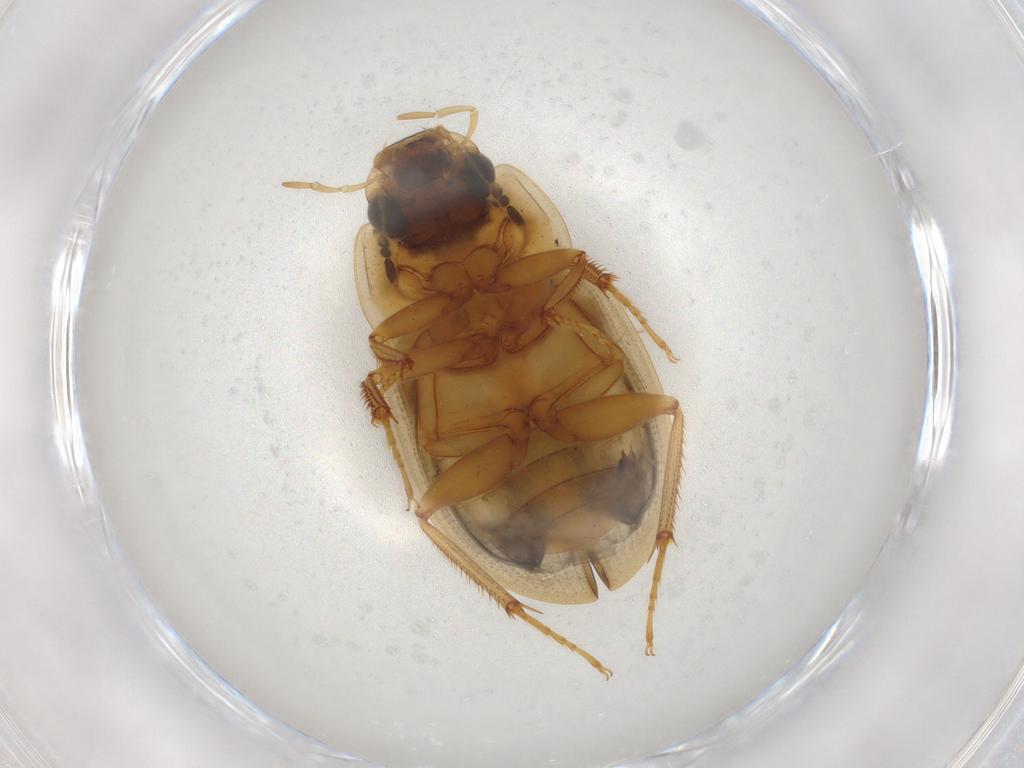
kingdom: Animalia
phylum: Arthropoda
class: Insecta
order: Coleoptera
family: Hydrophilidae
